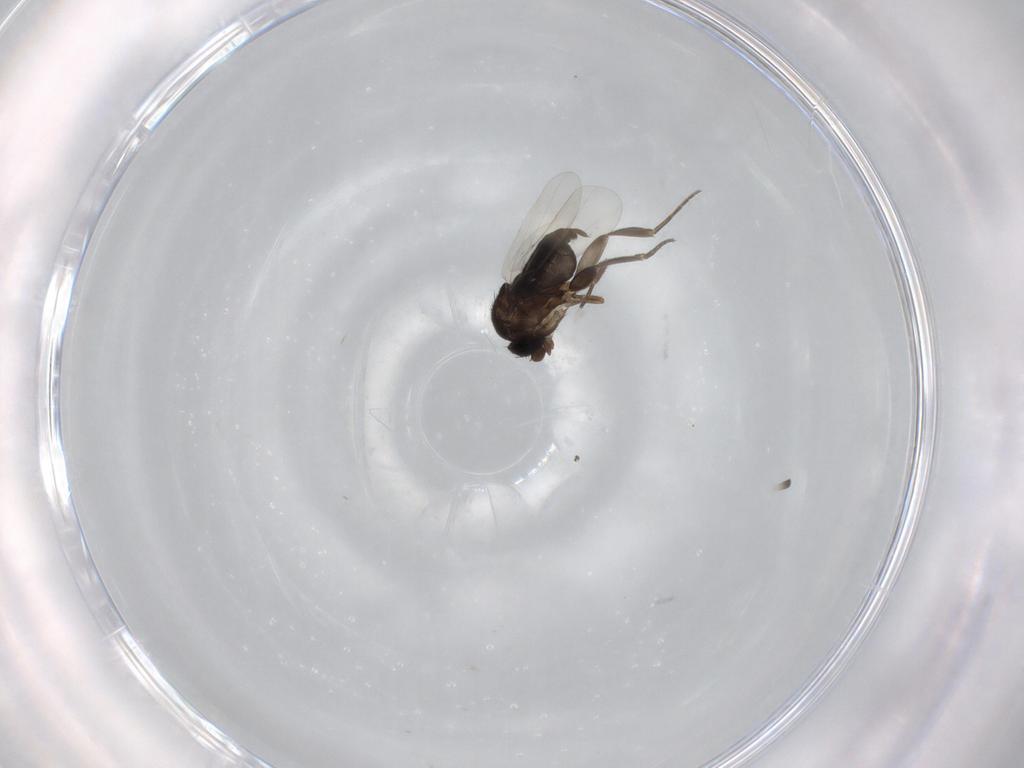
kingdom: Animalia
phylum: Arthropoda
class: Insecta
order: Diptera
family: Phoridae
